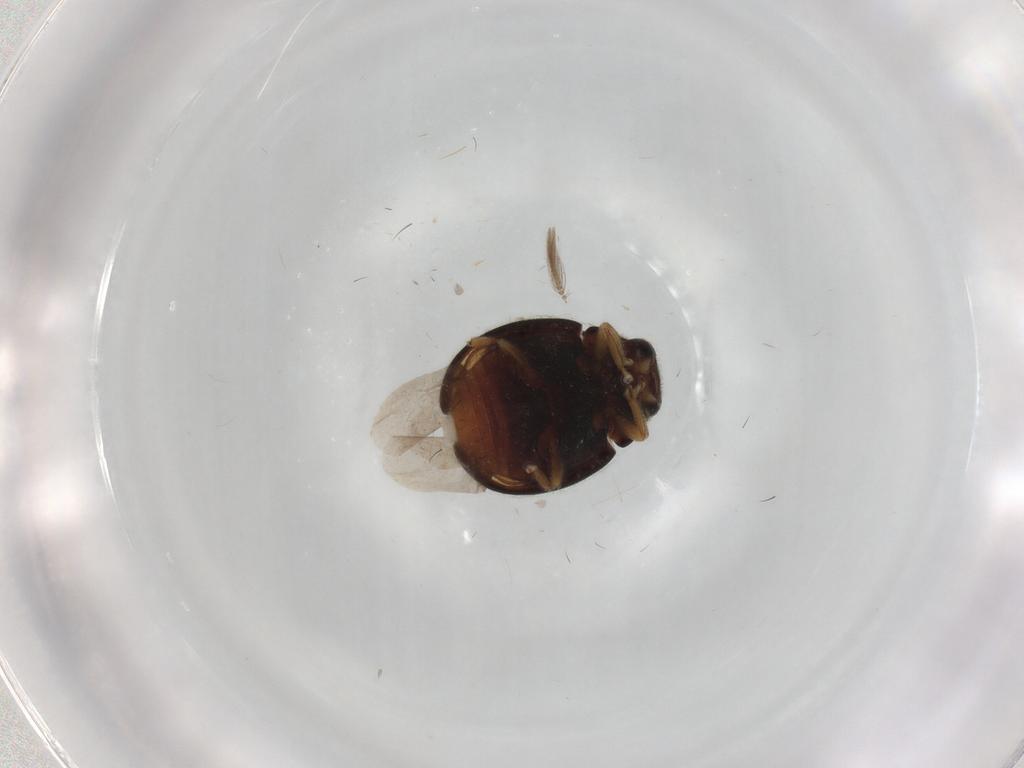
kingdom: Animalia
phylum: Arthropoda
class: Insecta
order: Coleoptera
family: Coccinellidae
